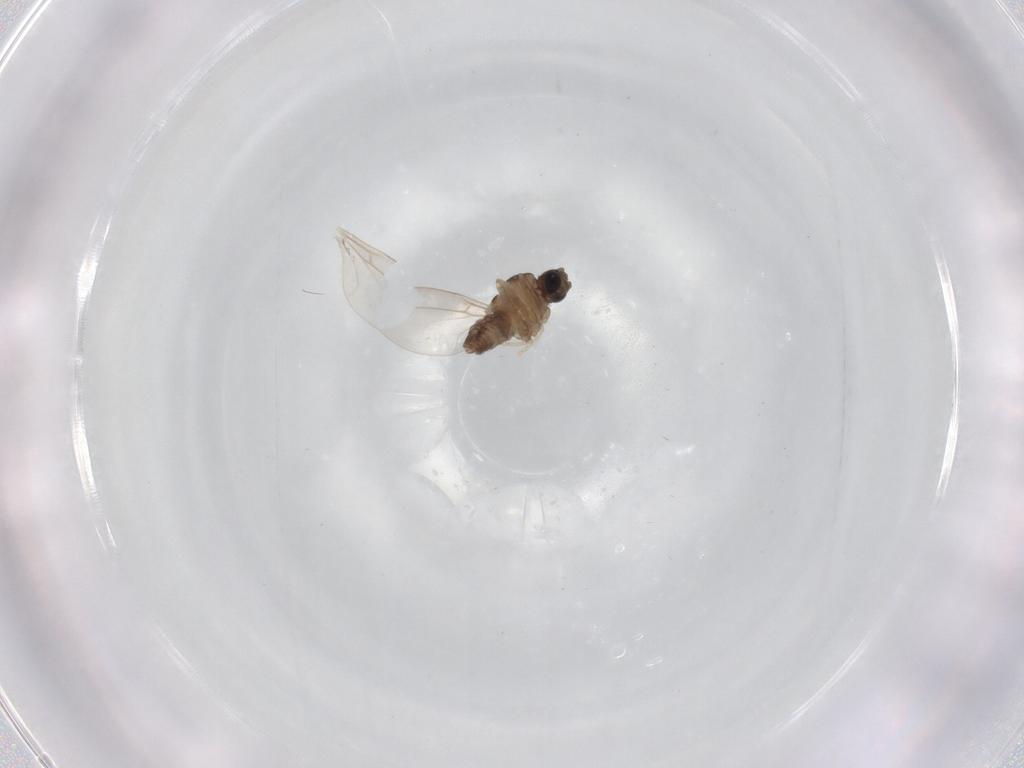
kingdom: Animalia
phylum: Arthropoda
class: Insecta
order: Diptera
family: Cecidomyiidae
